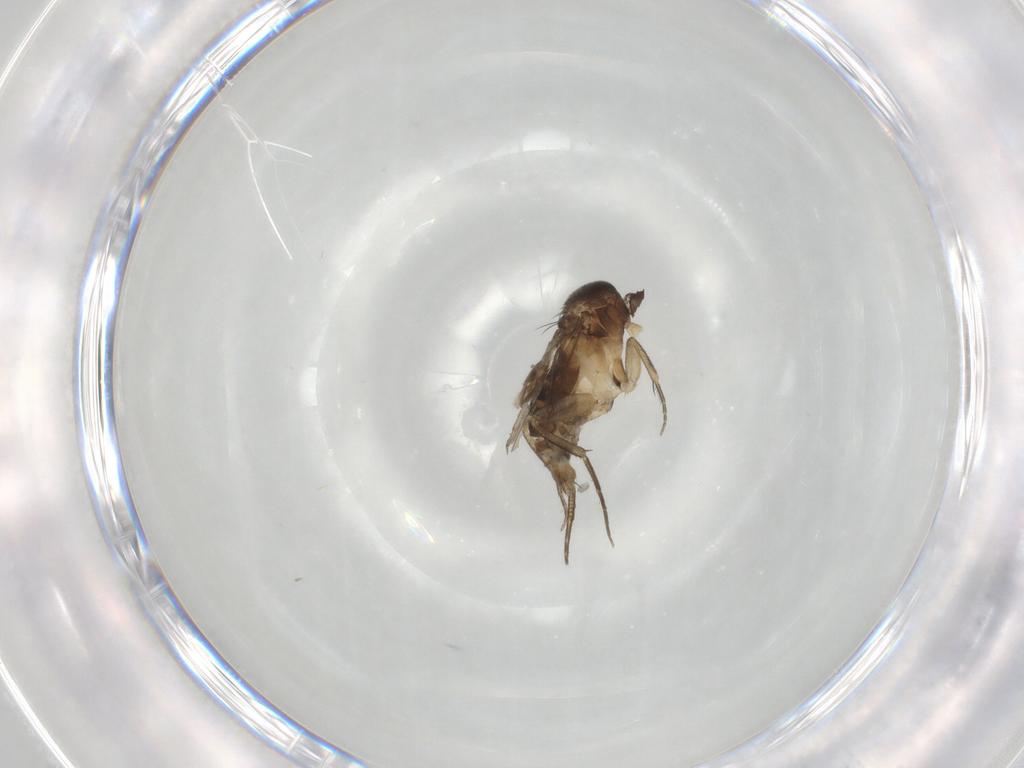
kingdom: Animalia
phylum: Arthropoda
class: Insecta
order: Diptera
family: Phoridae
